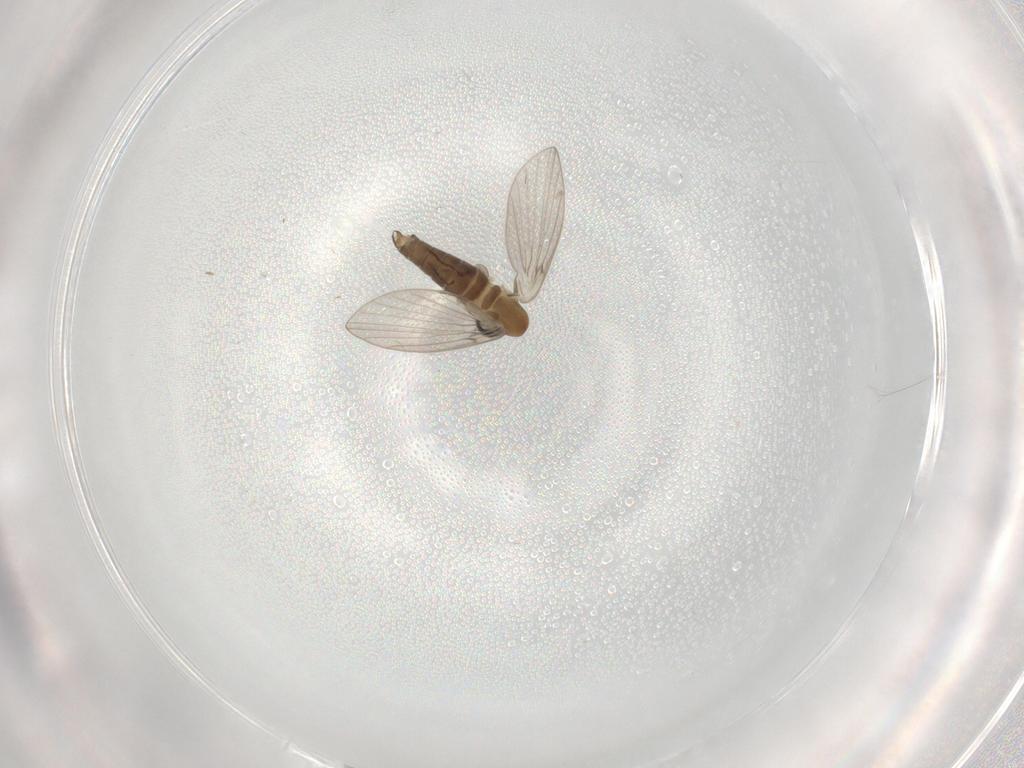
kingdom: Animalia
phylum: Arthropoda
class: Insecta
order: Diptera
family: Psychodidae
